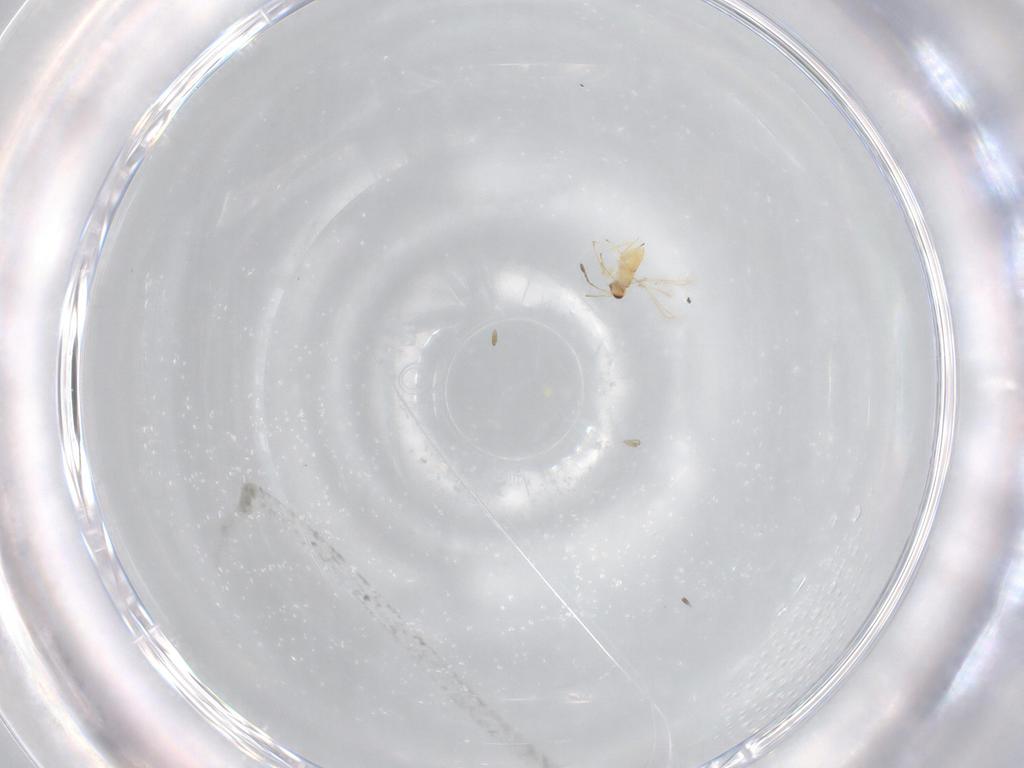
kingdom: Animalia
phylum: Arthropoda
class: Insecta
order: Hymenoptera
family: Mymaridae
